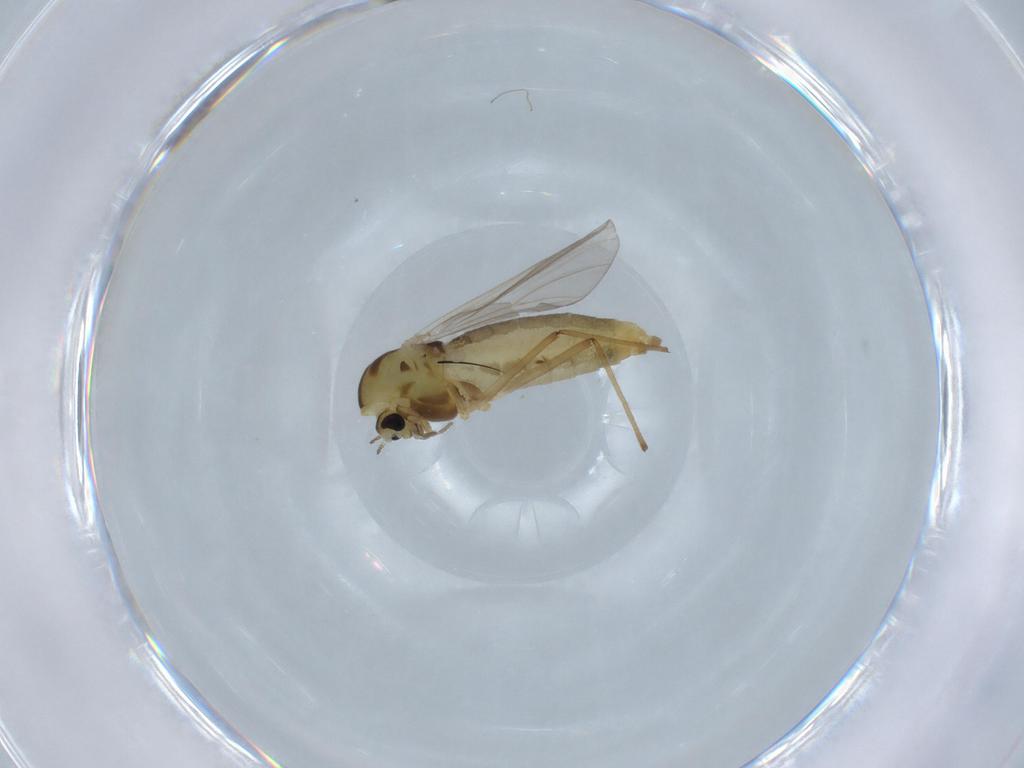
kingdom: Animalia
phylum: Arthropoda
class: Insecta
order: Diptera
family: Chironomidae
